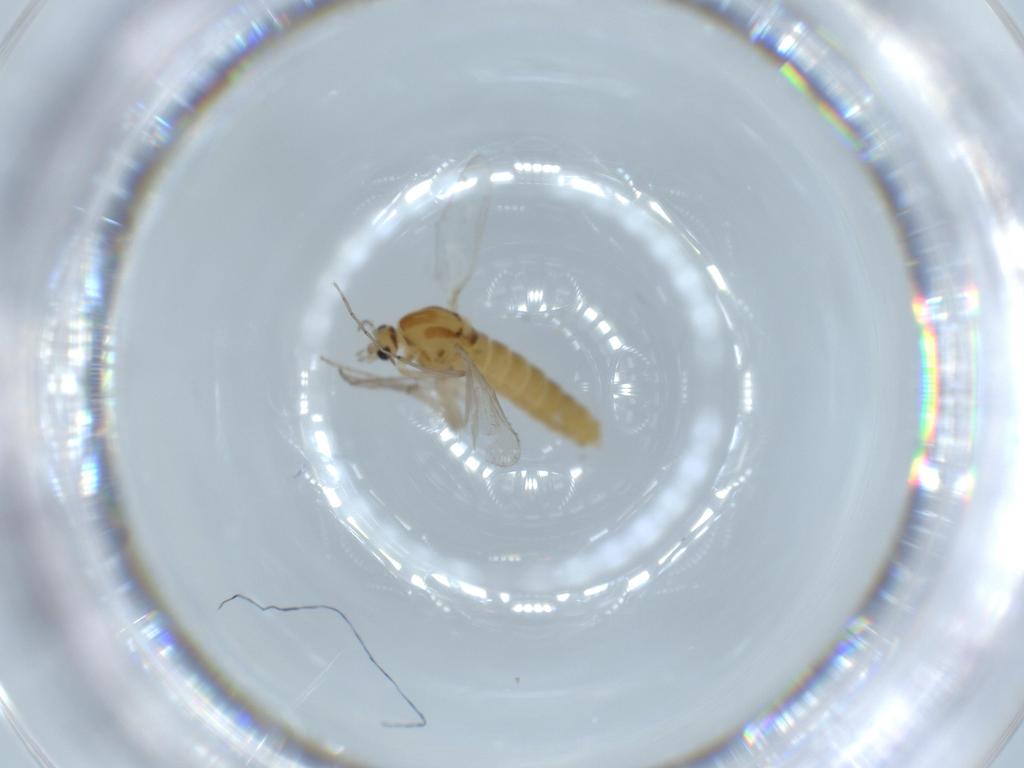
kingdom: Animalia
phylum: Arthropoda
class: Insecta
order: Diptera
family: Chironomidae
